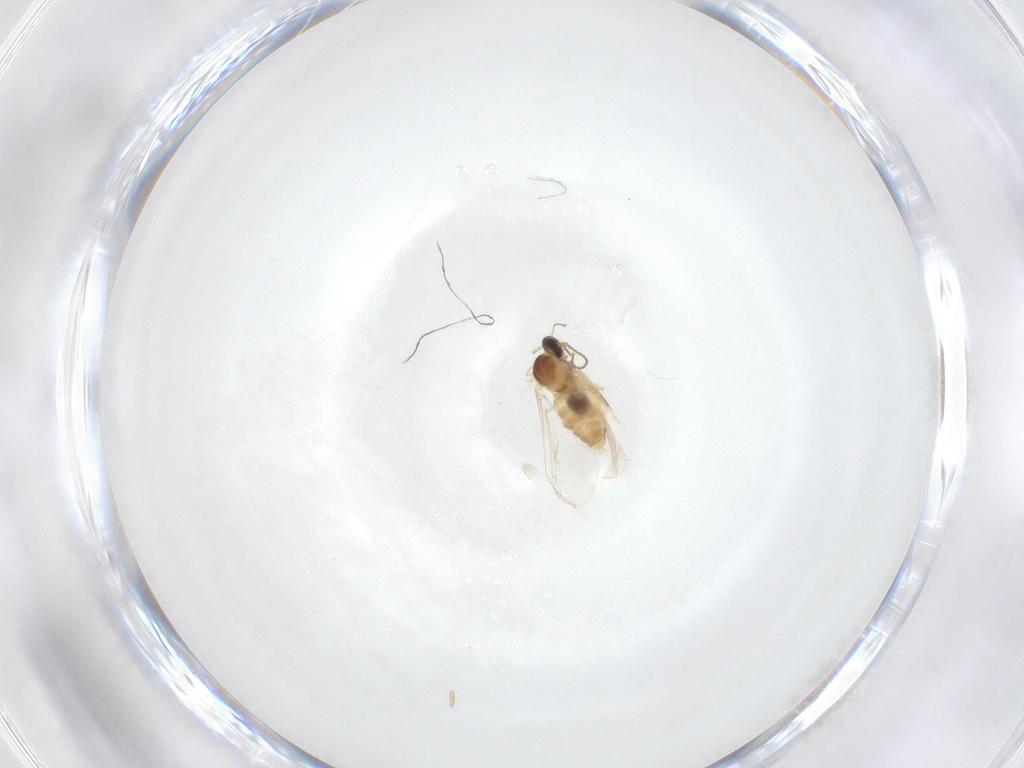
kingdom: Animalia
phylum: Arthropoda
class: Insecta
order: Diptera
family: Cecidomyiidae
